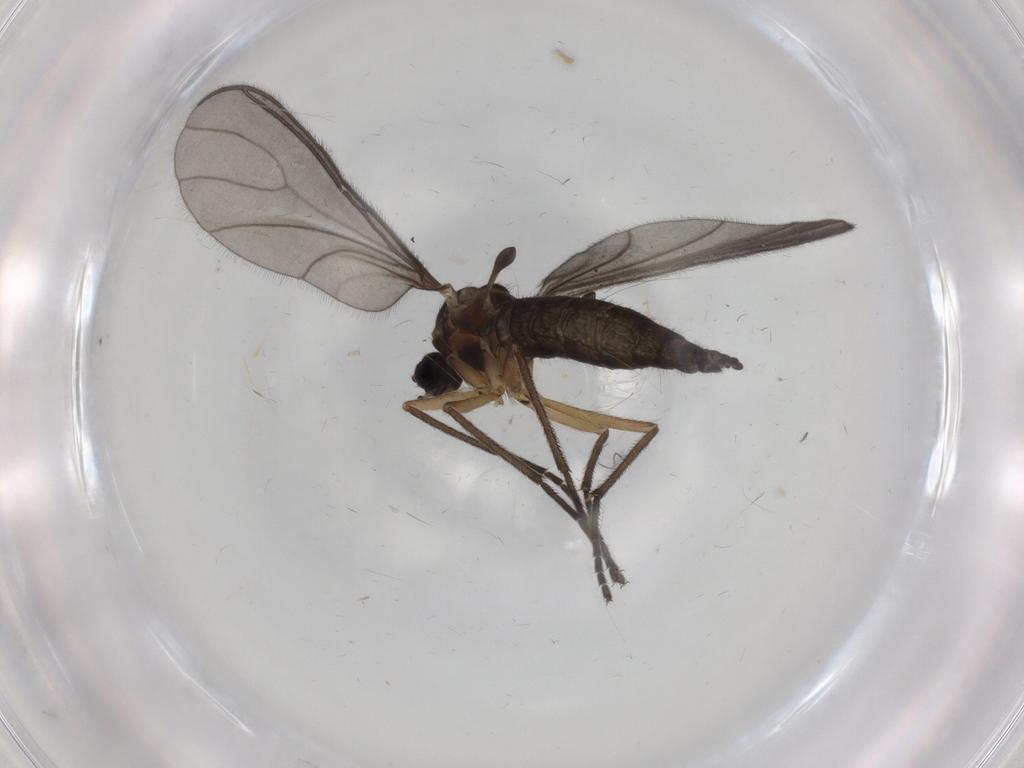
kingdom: Animalia
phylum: Arthropoda
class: Insecta
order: Diptera
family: Sciaridae
